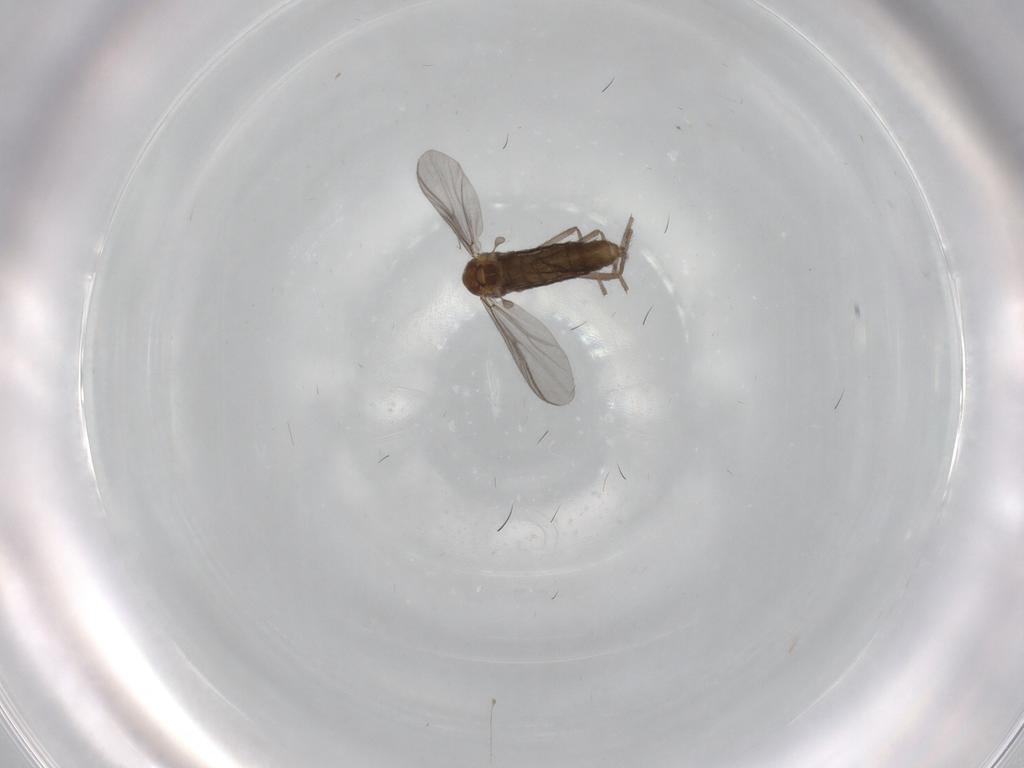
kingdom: Animalia
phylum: Arthropoda
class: Insecta
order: Diptera
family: Chironomidae
